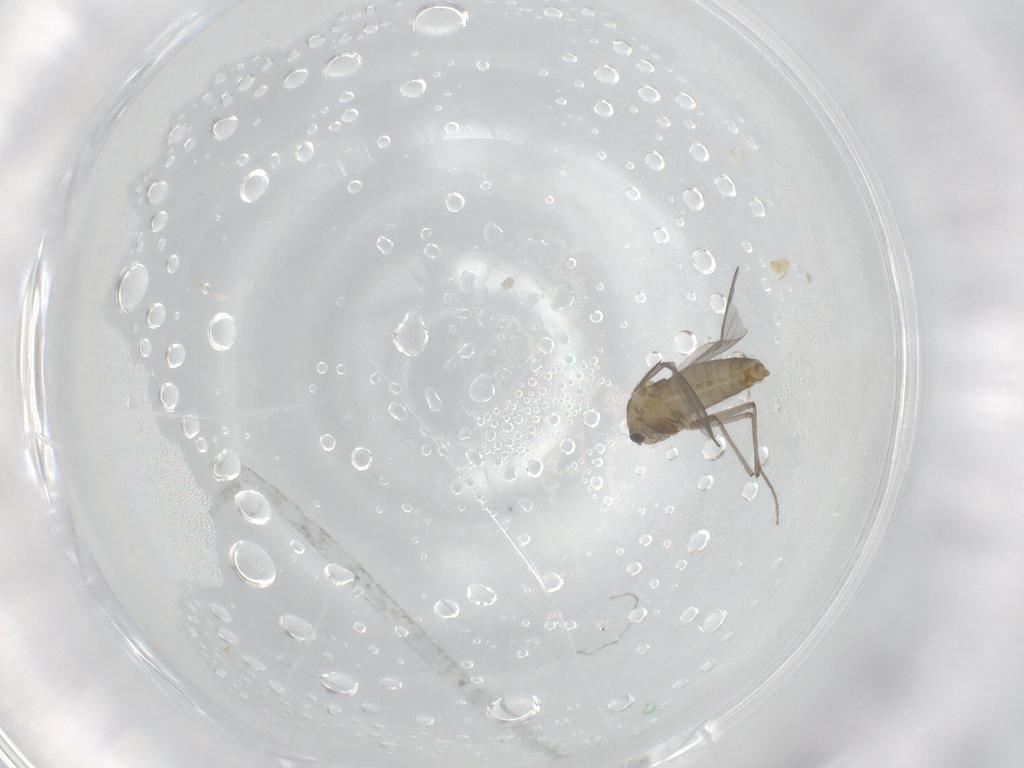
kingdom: Animalia
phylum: Arthropoda
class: Insecta
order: Diptera
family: Chironomidae
